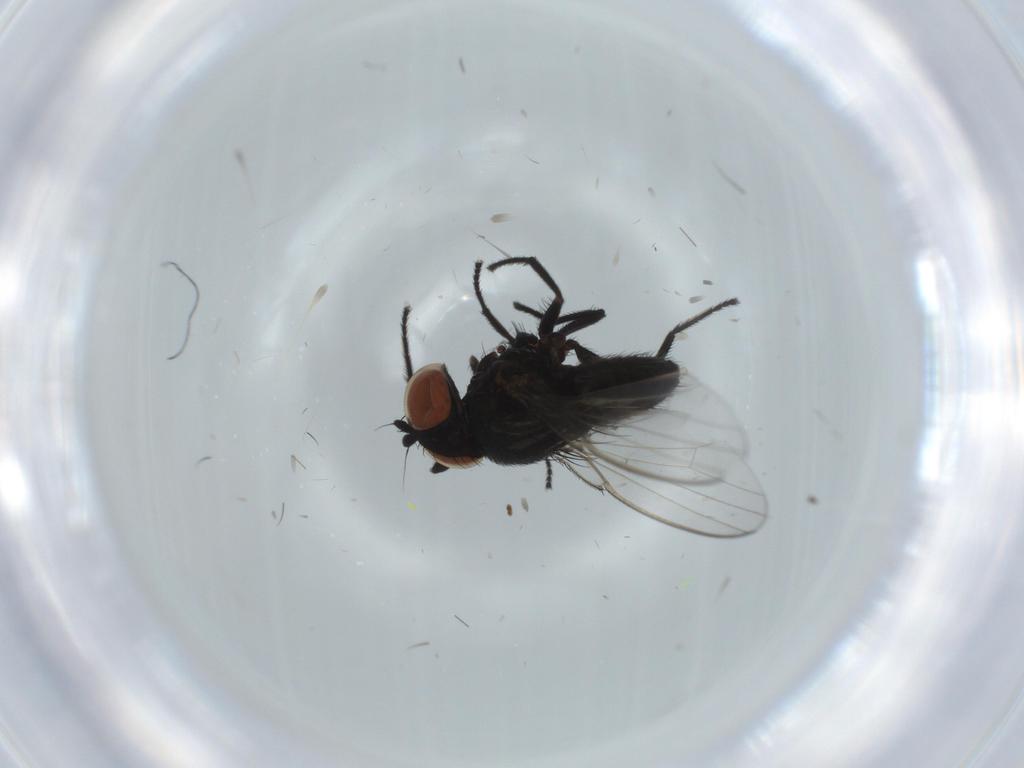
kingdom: Animalia
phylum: Arthropoda
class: Insecta
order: Diptera
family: Milichiidae
